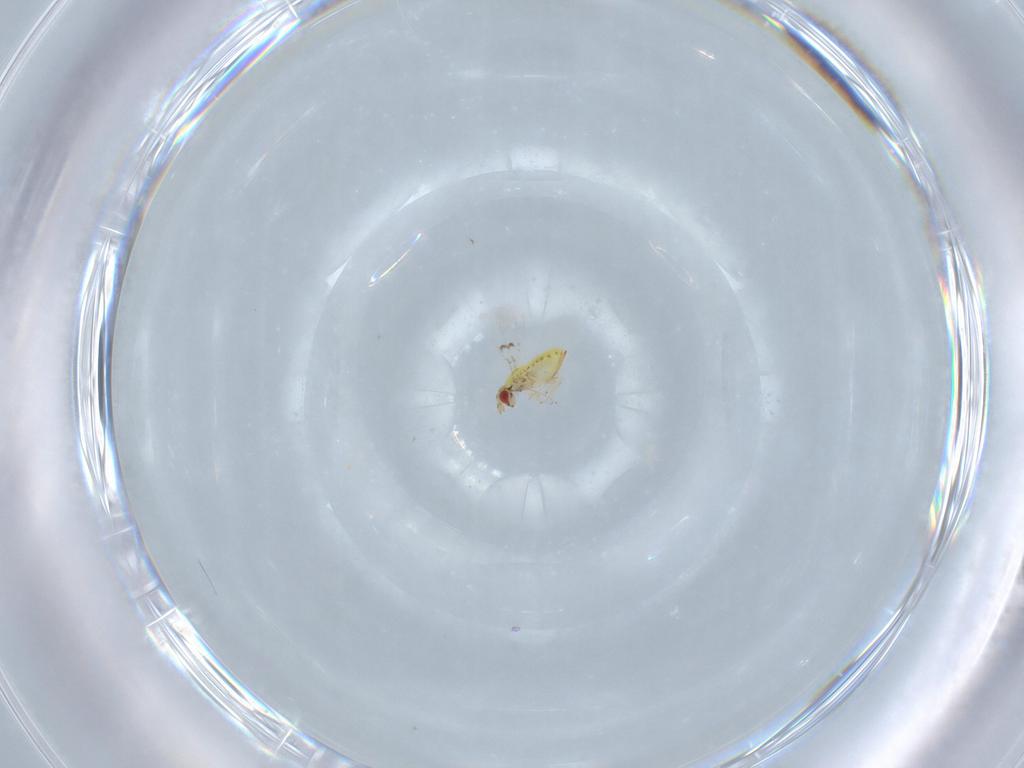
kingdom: Animalia
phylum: Arthropoda
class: Insecta
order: Hymenoptera
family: Trichogrammatidae
